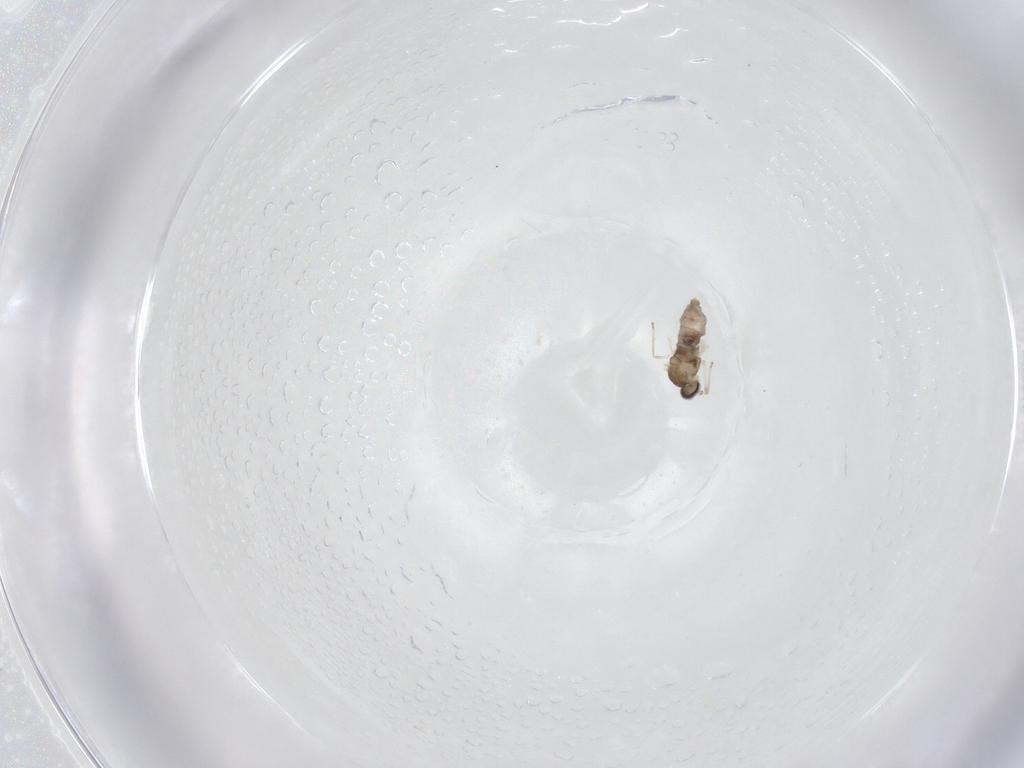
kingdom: Animalia
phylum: Arthropoda
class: Insecta
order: Diptera
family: Cecidomyiidae
